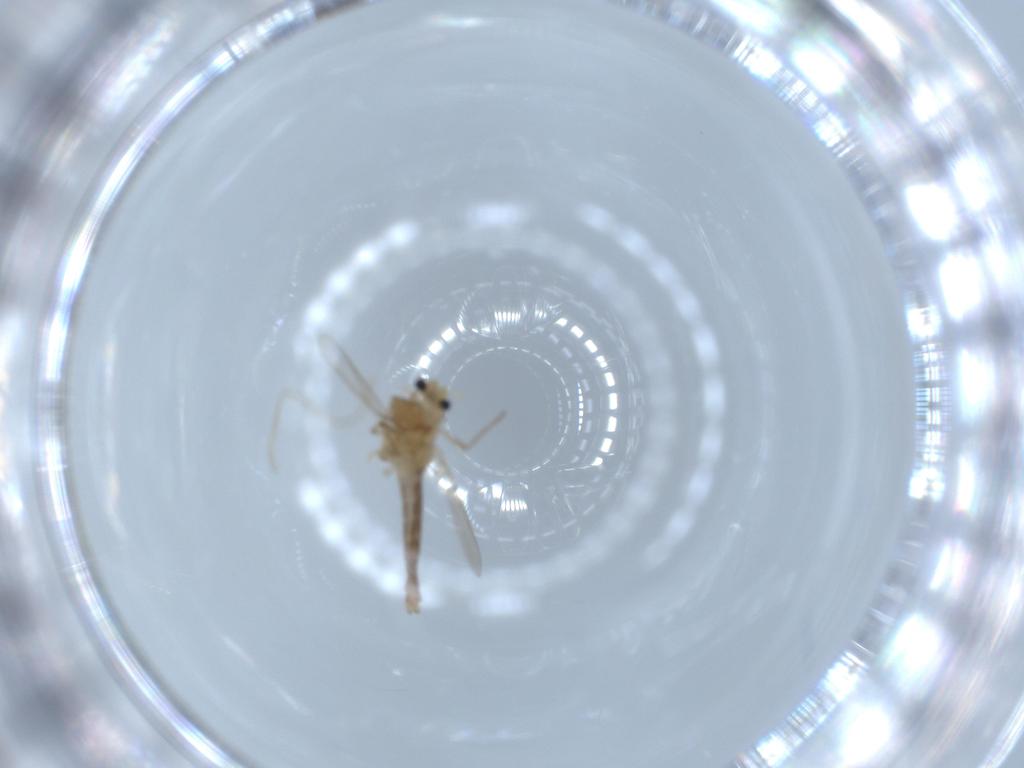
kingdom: Animalia
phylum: Arthropoda
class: Insecta
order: Diptera
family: Chironomidae
